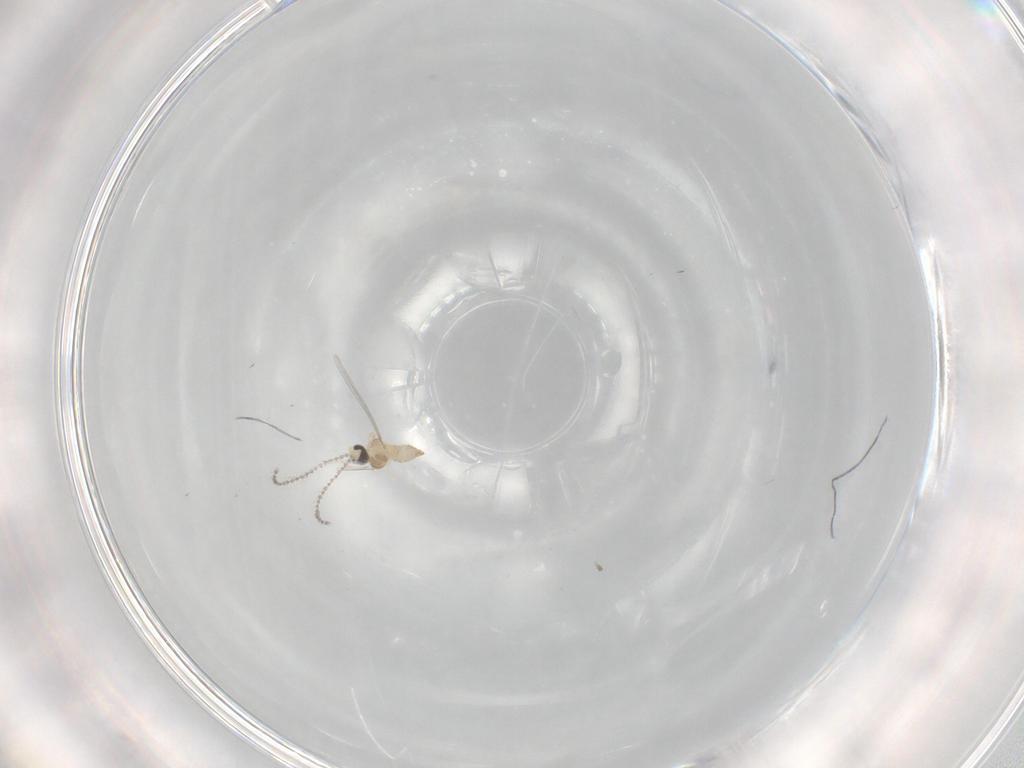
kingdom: Animalia
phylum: Arthropoda
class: Insecta
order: Diptera
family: Cecidomyiidae
